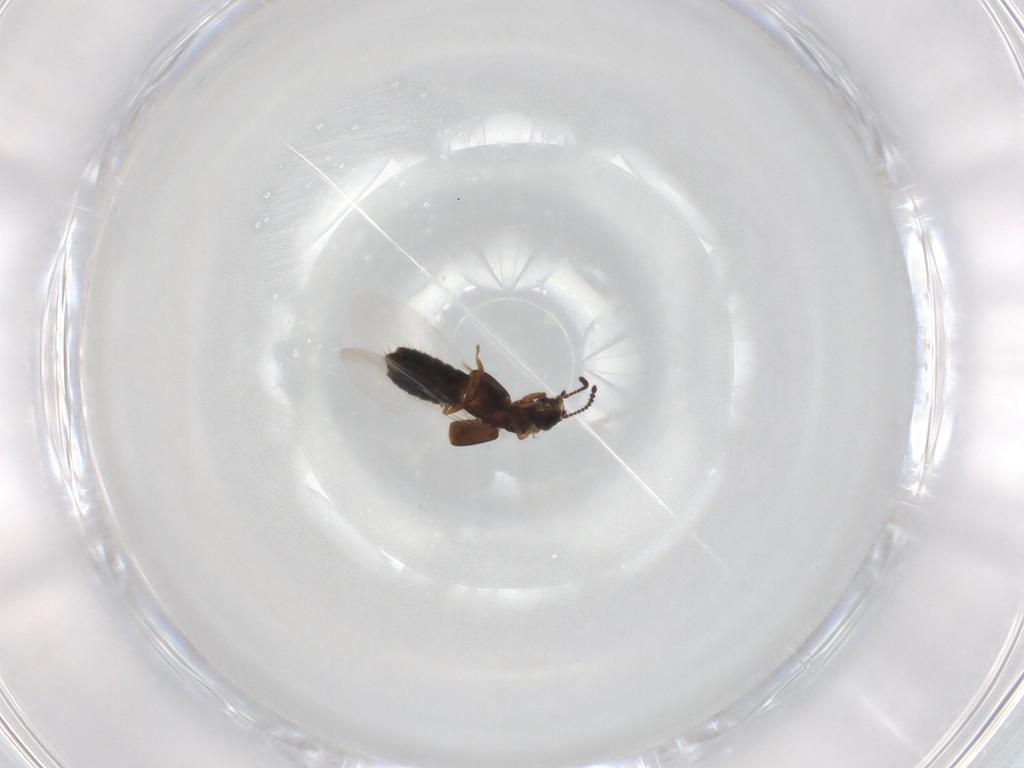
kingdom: Animalia
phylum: Arthropoda
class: Insecta
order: Coleoptera
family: Staphylinidae
